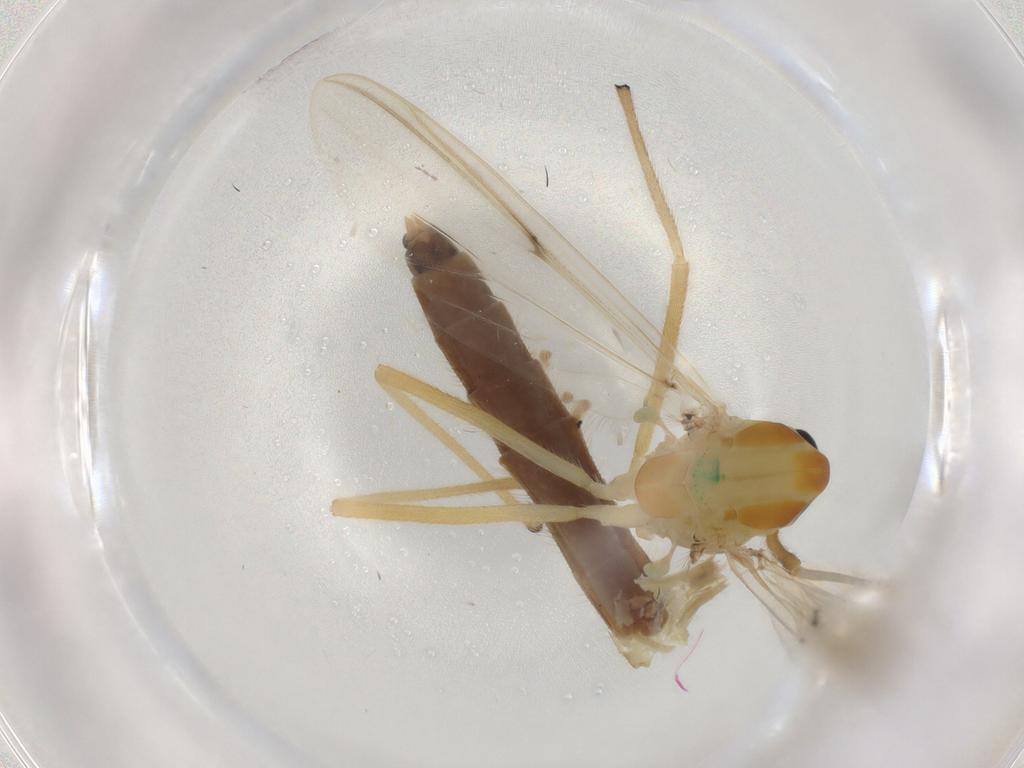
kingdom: Animalia
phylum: Arthropoda
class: Insecta
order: Diptera
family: Chironomidae
